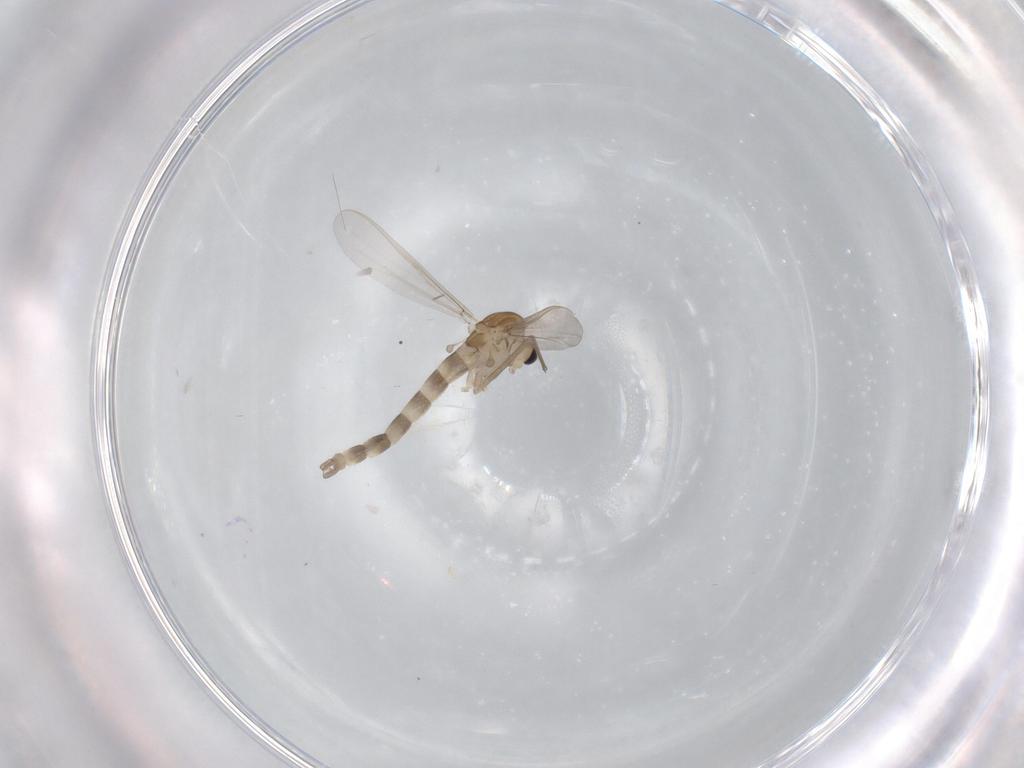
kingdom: Animalia
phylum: Arthropoda
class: Insecta
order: Diptera
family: Chironomidae
